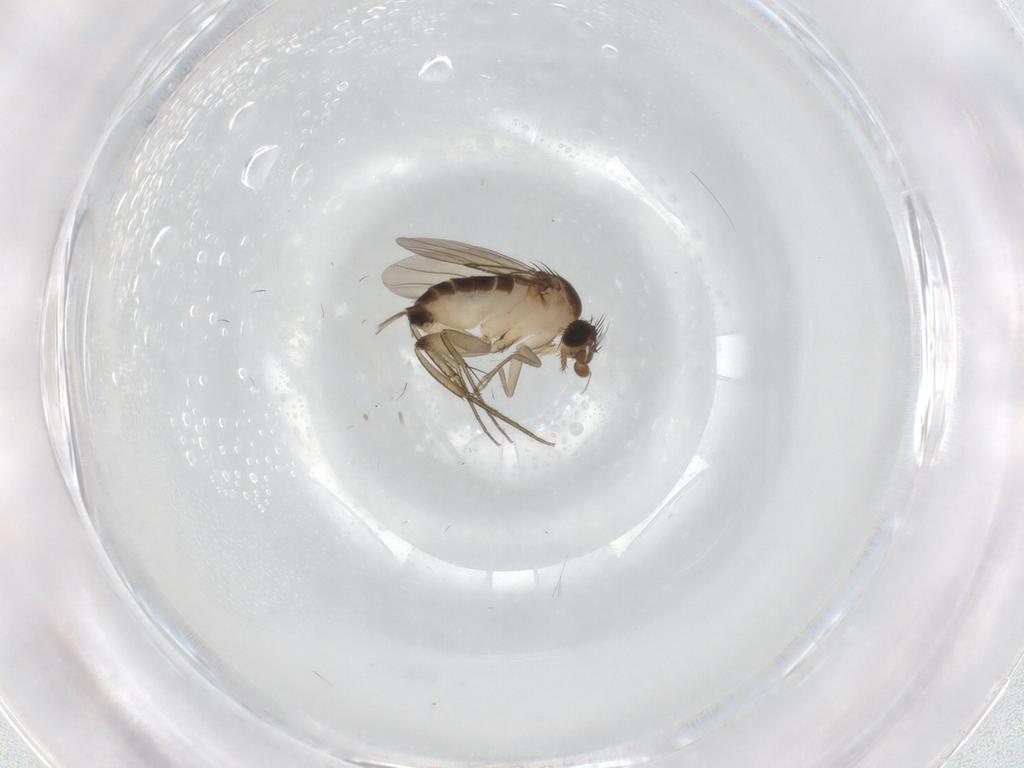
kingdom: Animalia
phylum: Arthropoda
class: Insecta
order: Diptera
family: Phoridae
